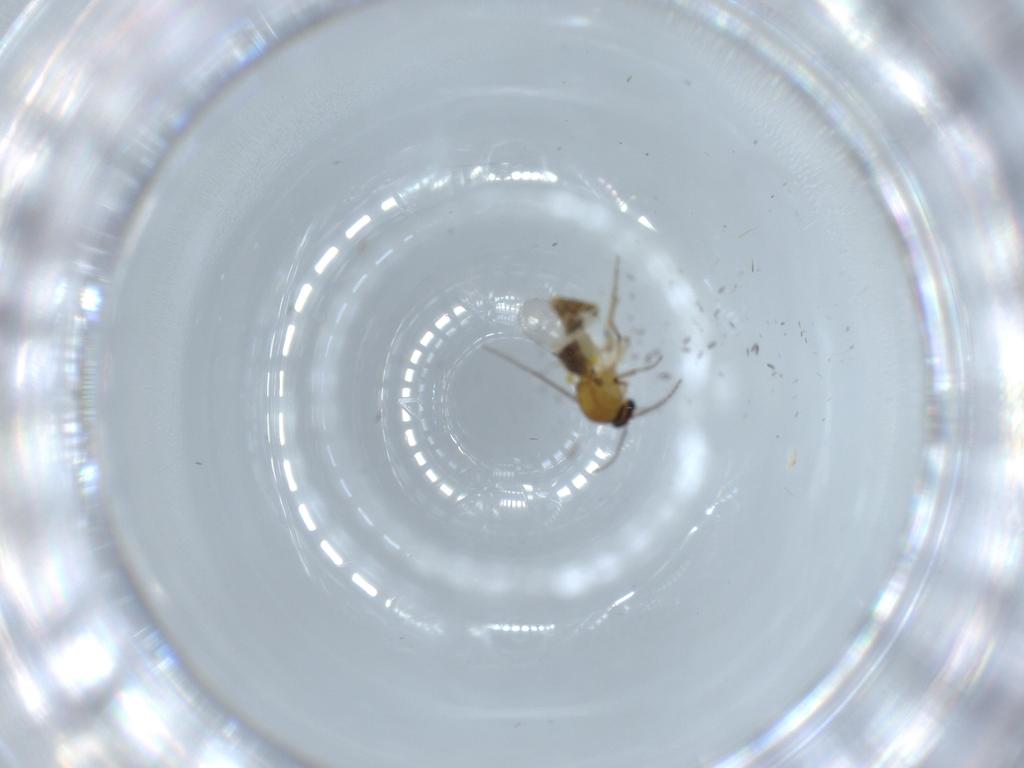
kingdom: Animalia
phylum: Arthropoda
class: Insecta
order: Diptera
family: Ceratopogonidae
